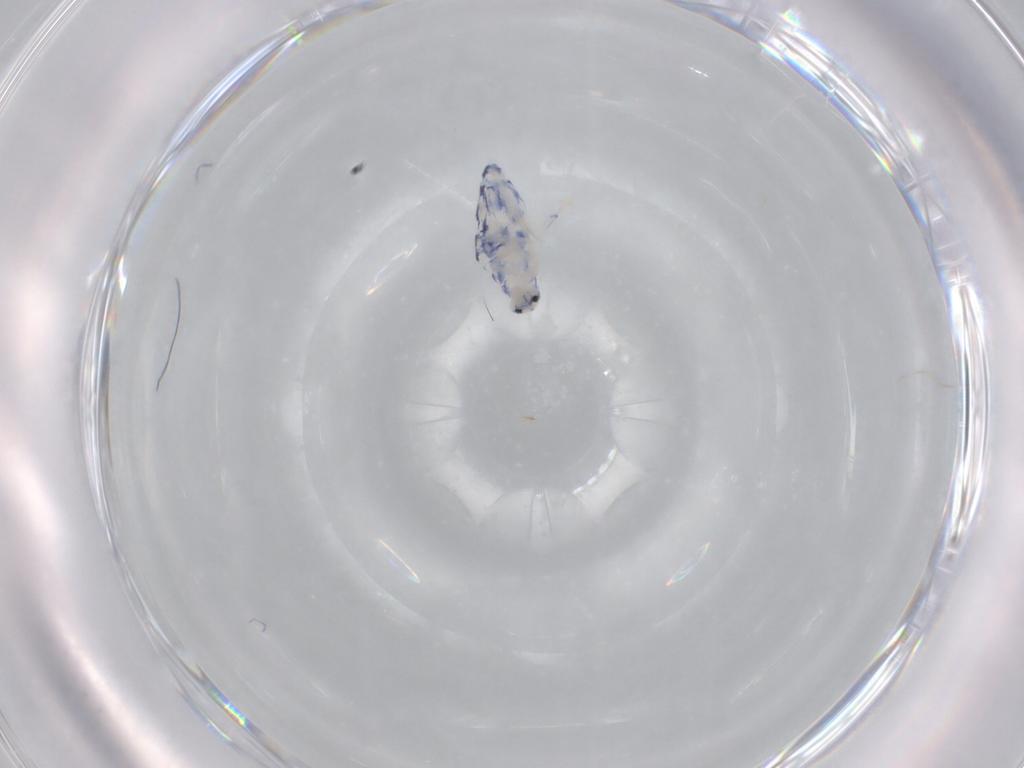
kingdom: Animalia
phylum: Arthropoda
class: Collembola
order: Entomobryomorpha
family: Entomobryidae
